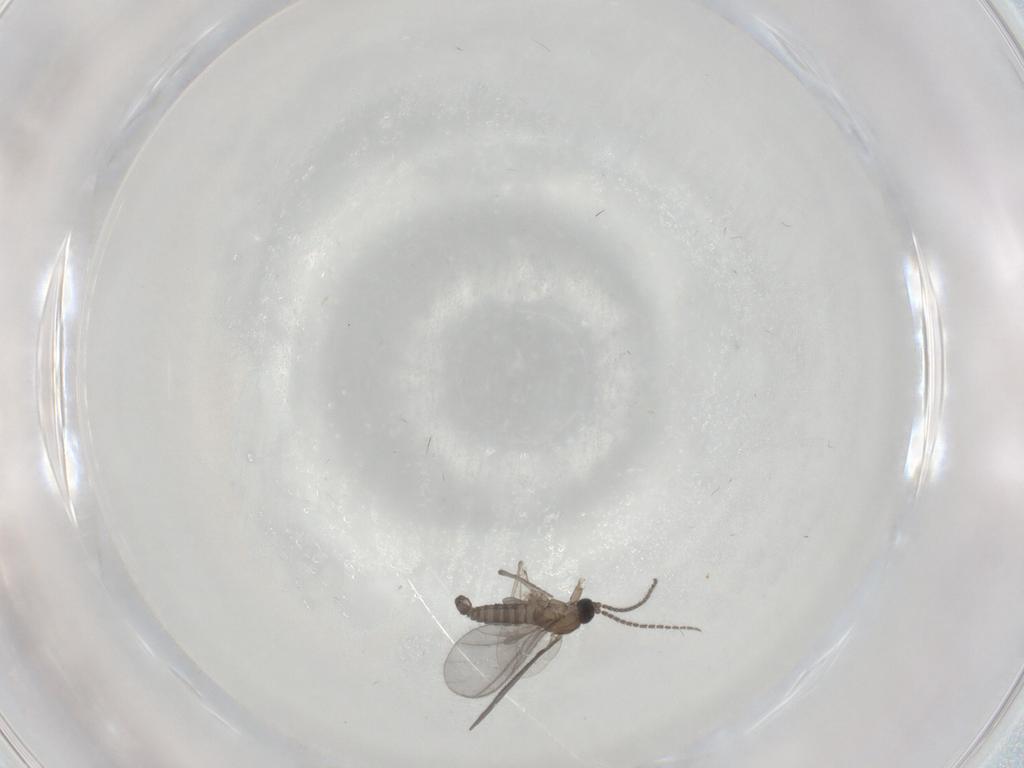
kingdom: Animalia
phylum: Arthropoda
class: Insecta
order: Diptera
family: Sciaridae
